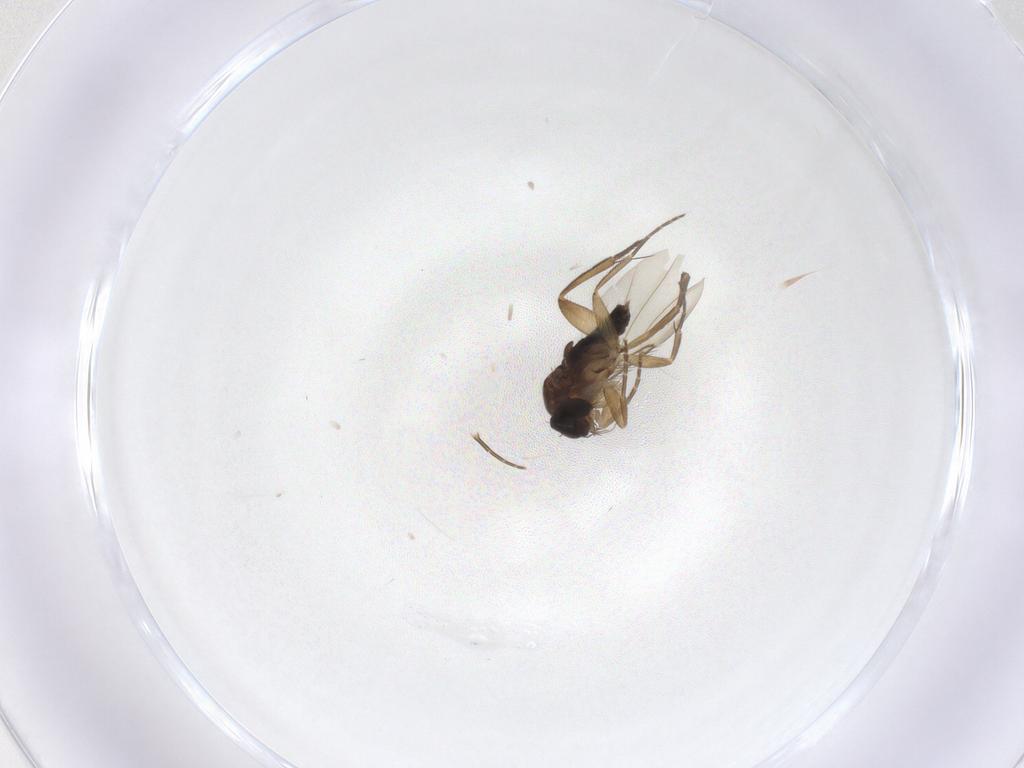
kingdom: Animalia
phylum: Arthropoda
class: Insecta
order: Diptera
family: Phoridae
